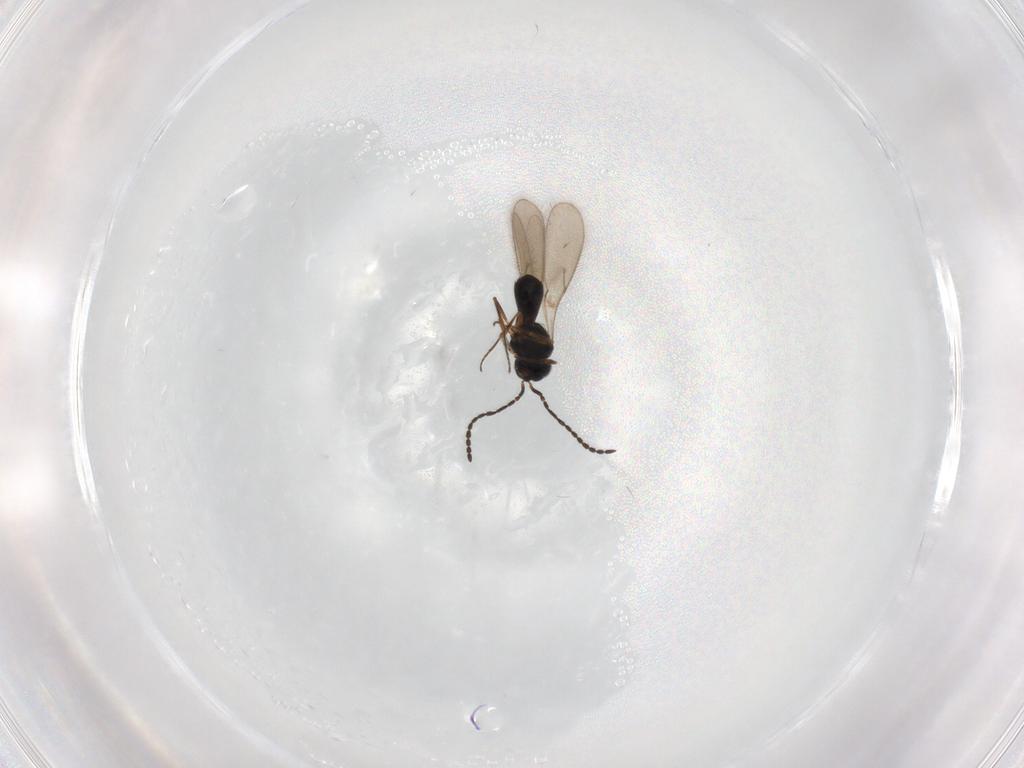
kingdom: Animalia
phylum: Arthropoda
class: Insecta
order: Hymenoptera
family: Scelionidae
